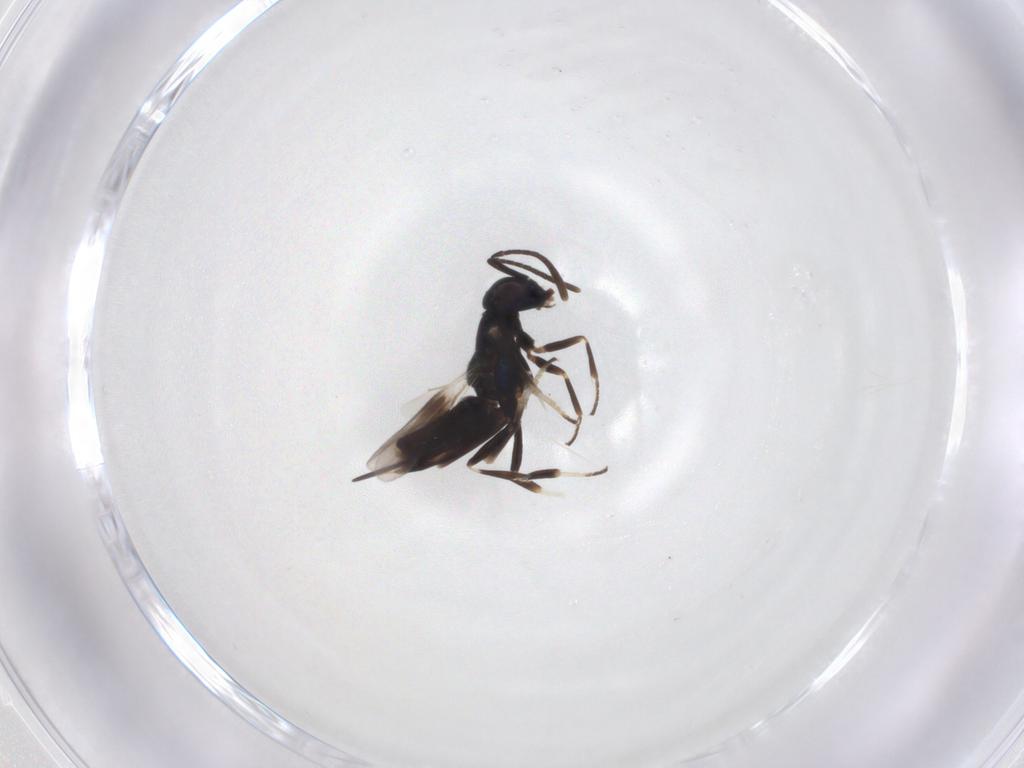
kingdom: Animalia
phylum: Arthropoda
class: Insecta
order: Hymenoptera
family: Encyrtidae
